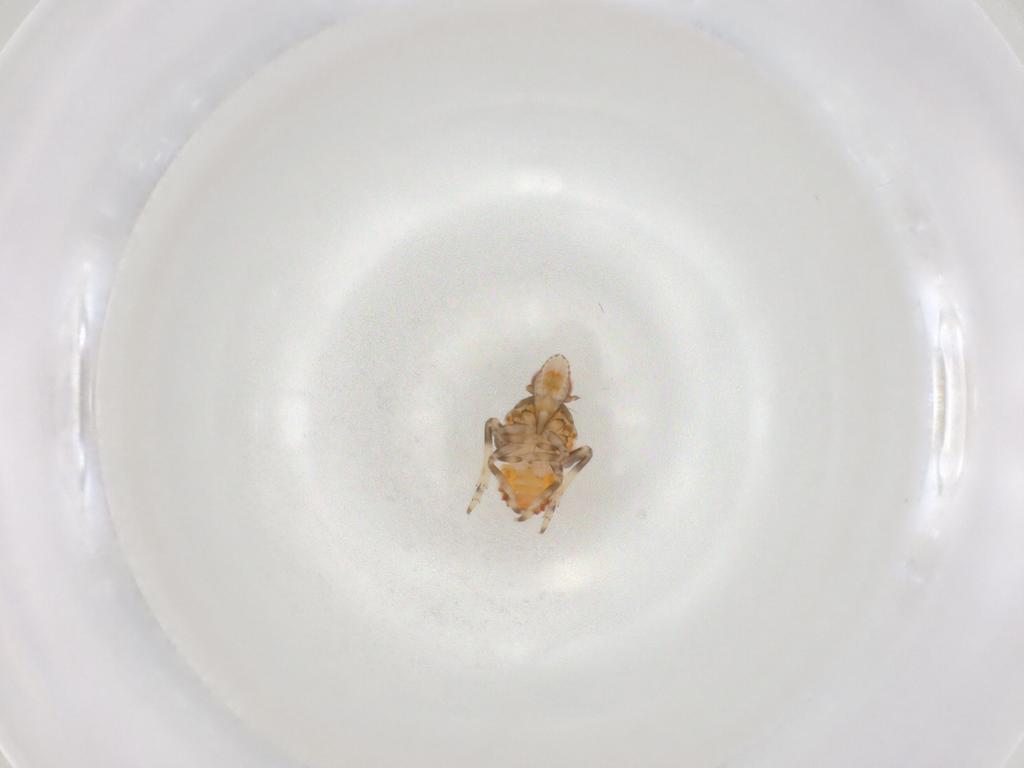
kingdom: Animalia
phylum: Arthropoda
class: Insecta
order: Hemiptera
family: Tropiduchidae
